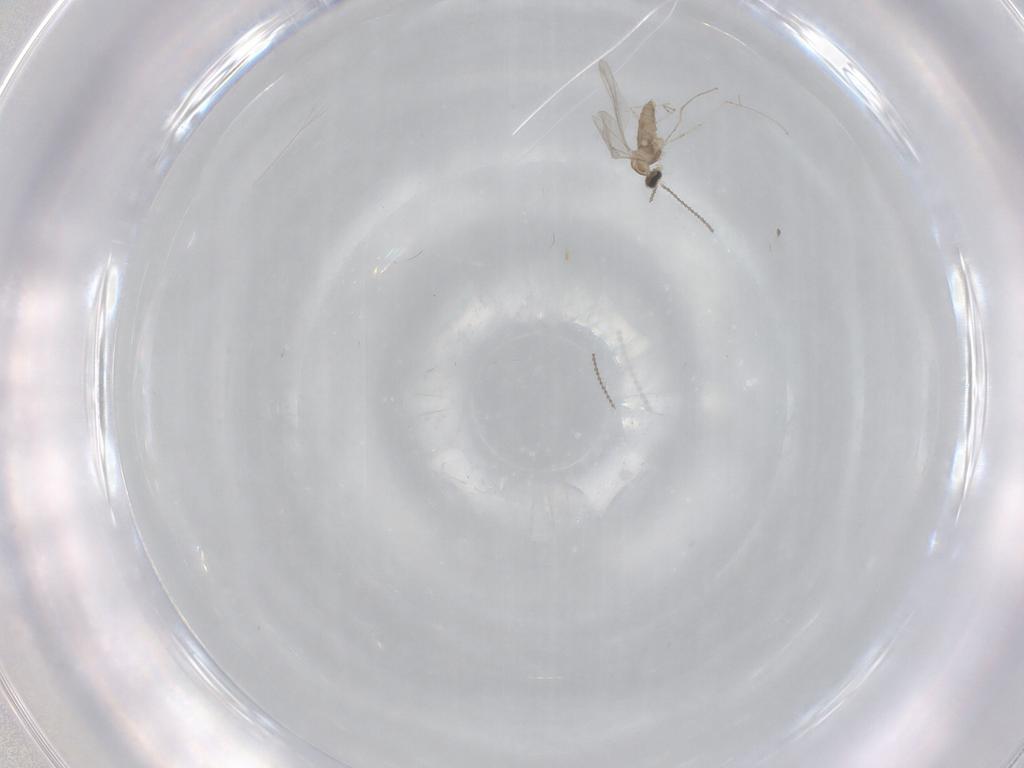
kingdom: Animalia
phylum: Arthropoda
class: Insecta
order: Diptera
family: Chironomidae
